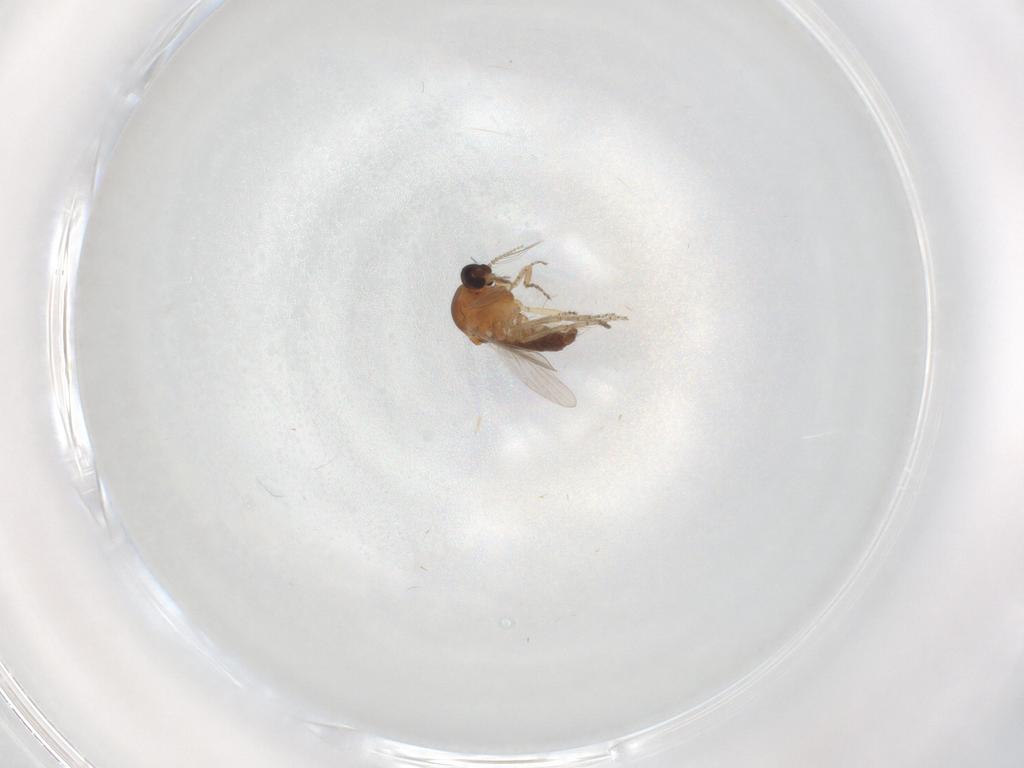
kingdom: Animalia
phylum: Arthropoda
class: Insecta
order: Diptera
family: Ceratopogonidae
